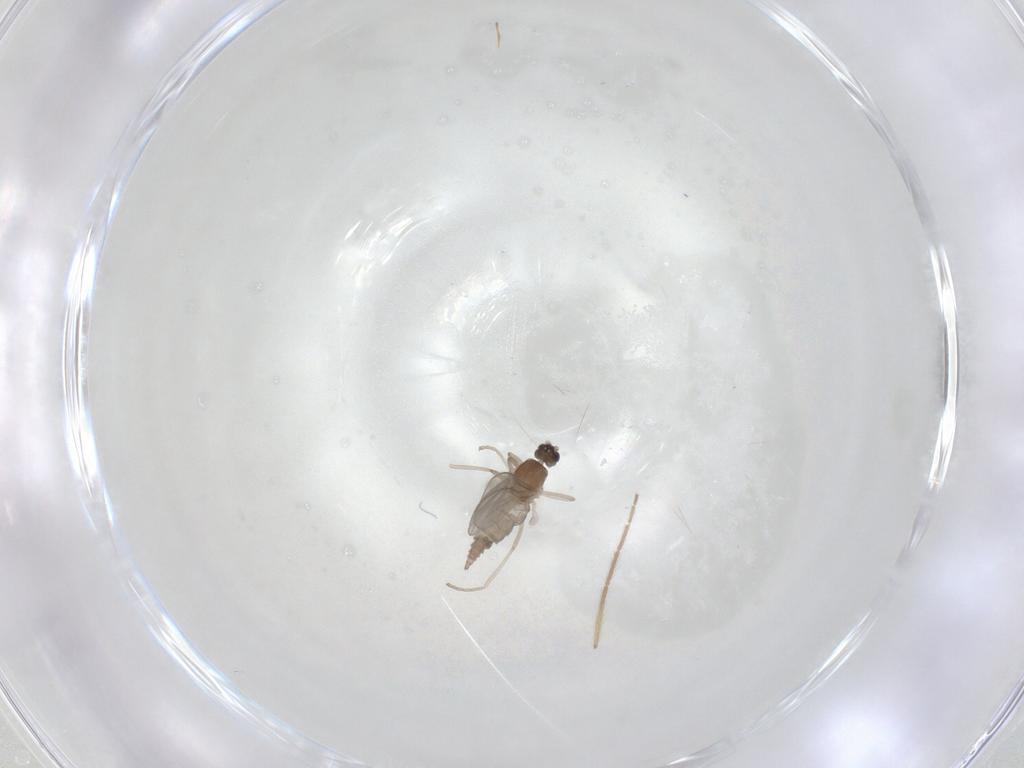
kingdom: Animalia
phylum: Arthropoda
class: Insecta
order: Diptera
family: Cecidomyiidae
